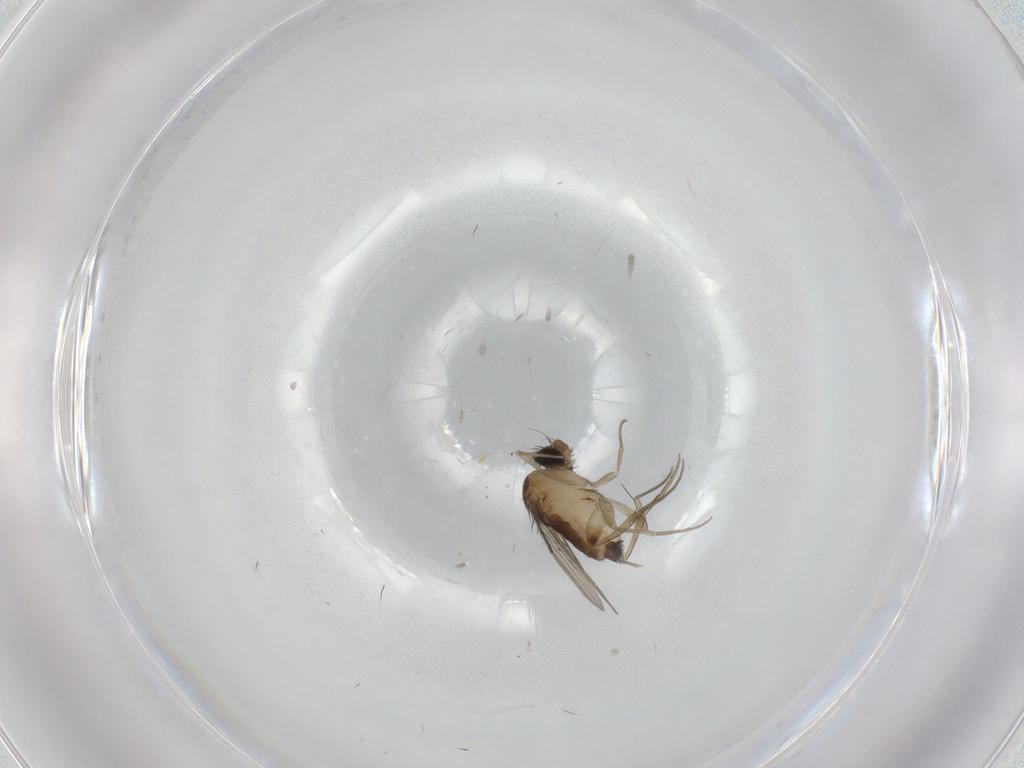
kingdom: Animalia
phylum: Arthropoda
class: Insecta
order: Diptera
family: Phoridae
